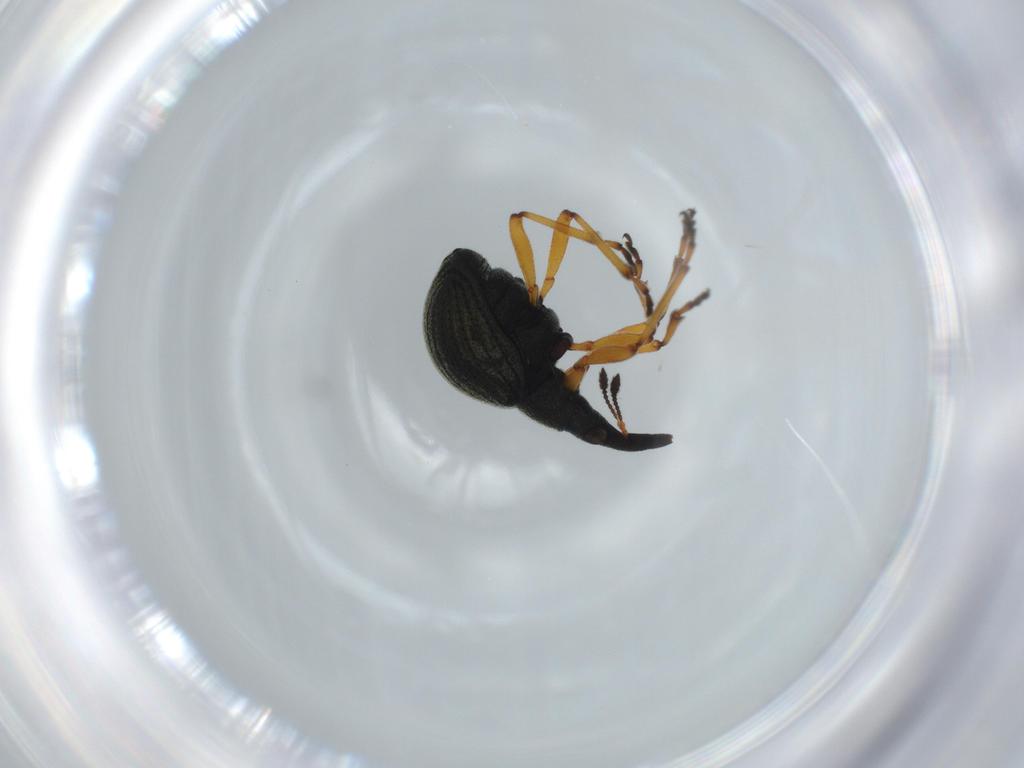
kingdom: Animalia
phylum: Arthropoda
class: Insecta
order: Coleoptera
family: Brentidae
